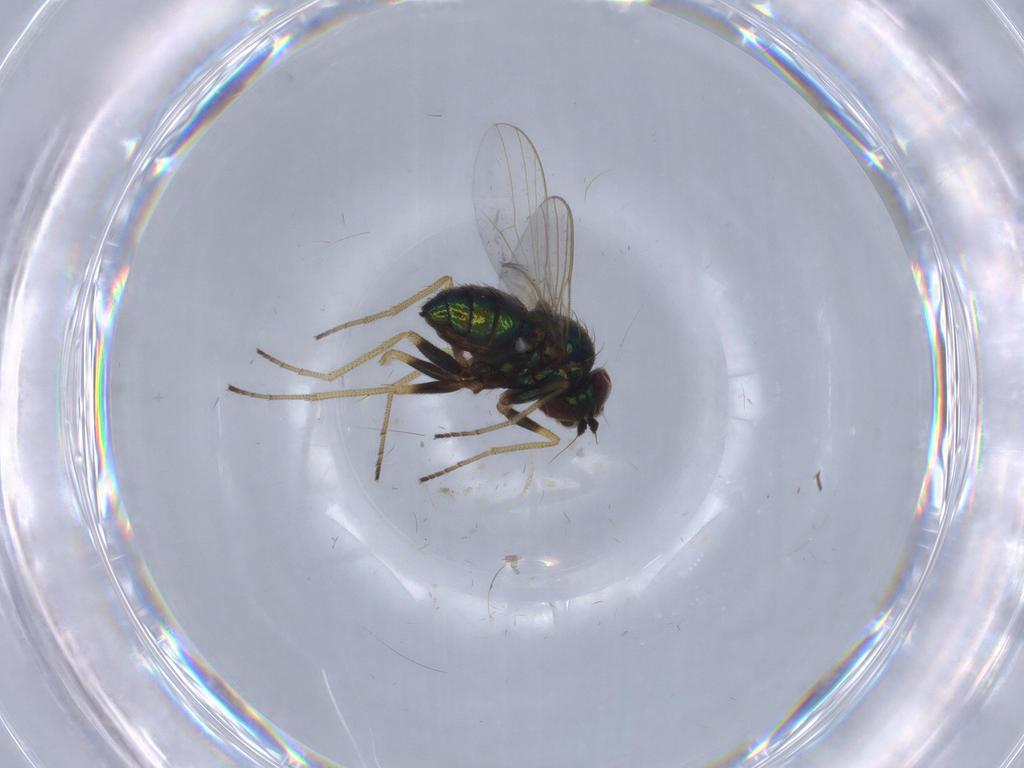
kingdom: Animalia
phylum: Arthropoda
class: Insecta
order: Diptera
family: Dolichopodidae
